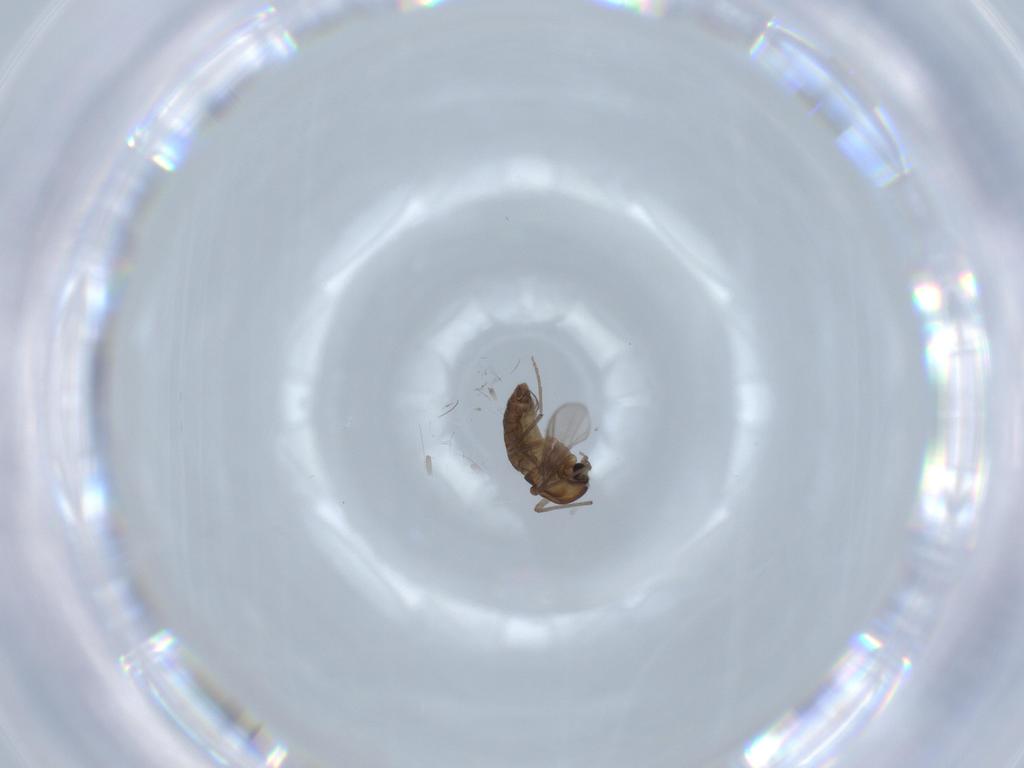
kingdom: Animalia
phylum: Arthropoda
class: Insecta
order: Diptera
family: Chironomidae
